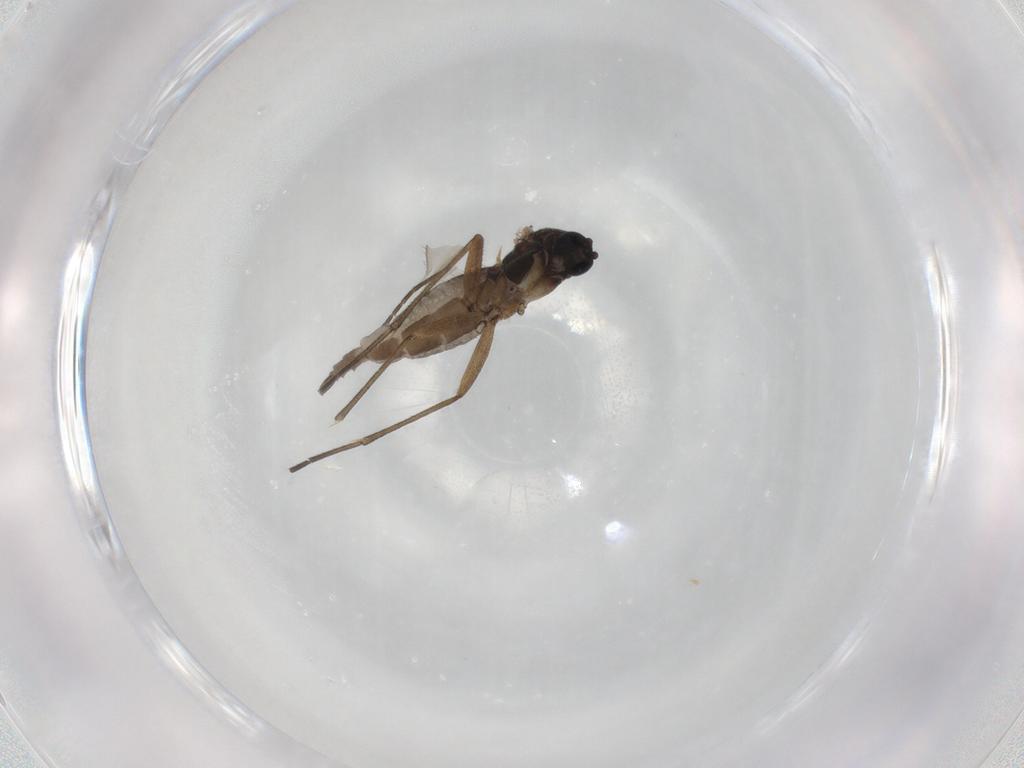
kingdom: Animalia
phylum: Arthropoda
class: Insecta
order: Diptera
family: Sciaridae
